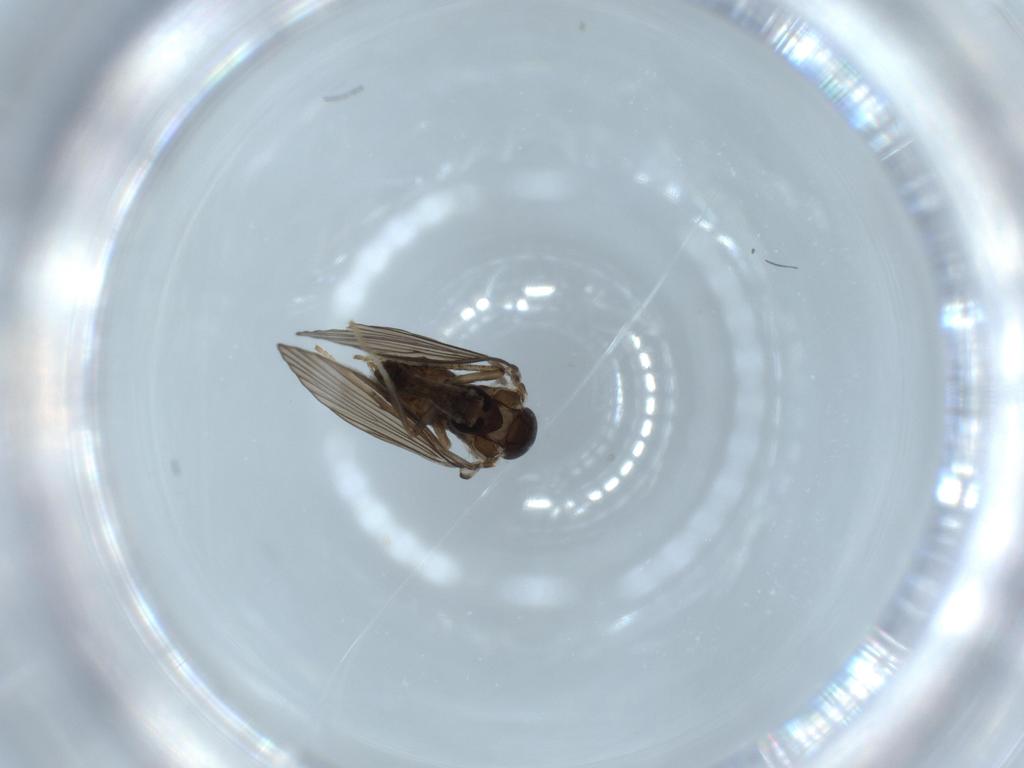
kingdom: Animalia
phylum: Arthropoda
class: Insecta
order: Diptera
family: Psychodidae
